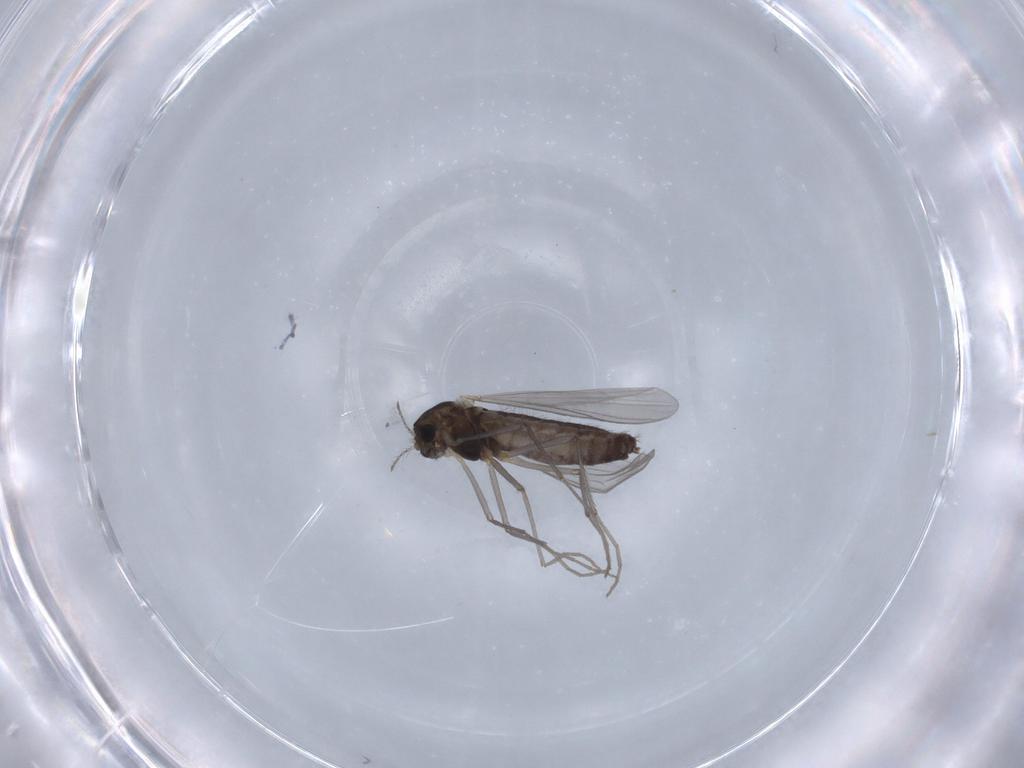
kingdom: Animalia
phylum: Arthropoda
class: Insecta
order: Diptera
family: Chironomidae
